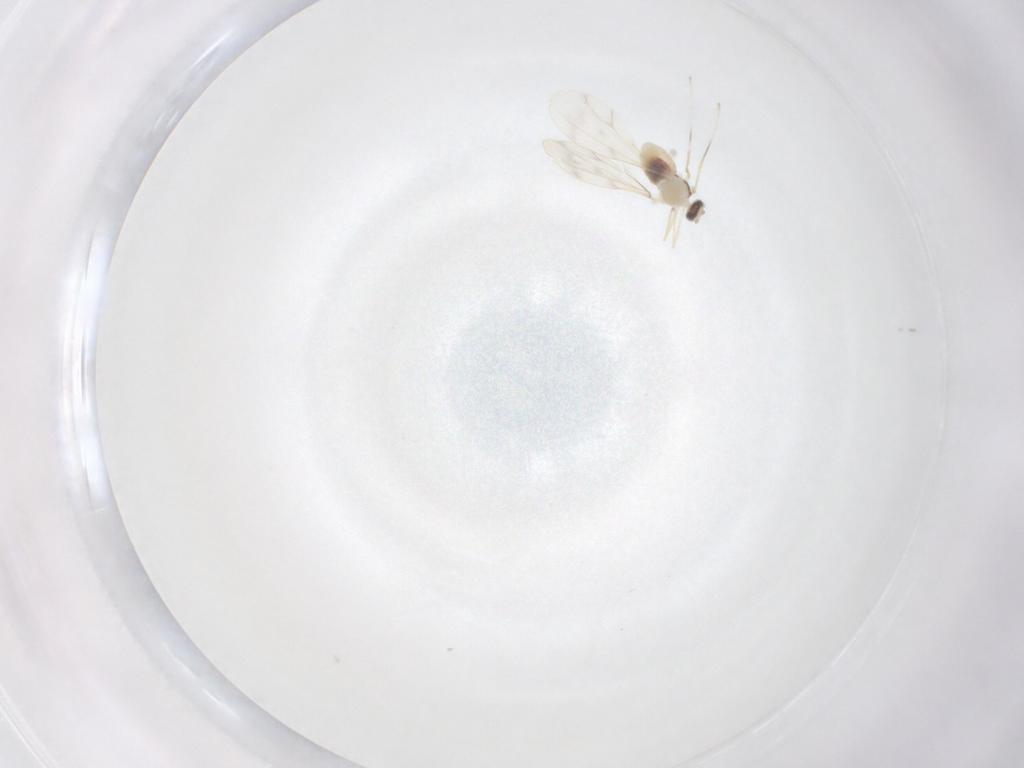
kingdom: Animalia
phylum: Arthropoda
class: Insecta
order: Diptera
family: Cecidomyiidae
